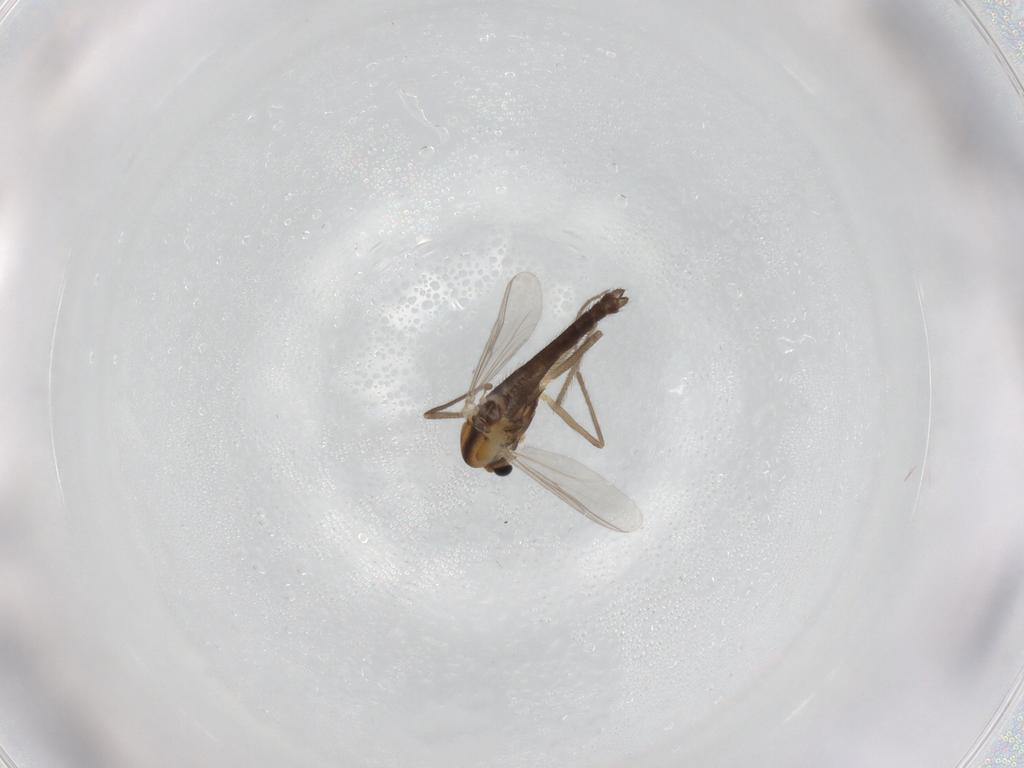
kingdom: Animalia
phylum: Arthropoda
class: Insecta
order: Diptera
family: Chironomidae
